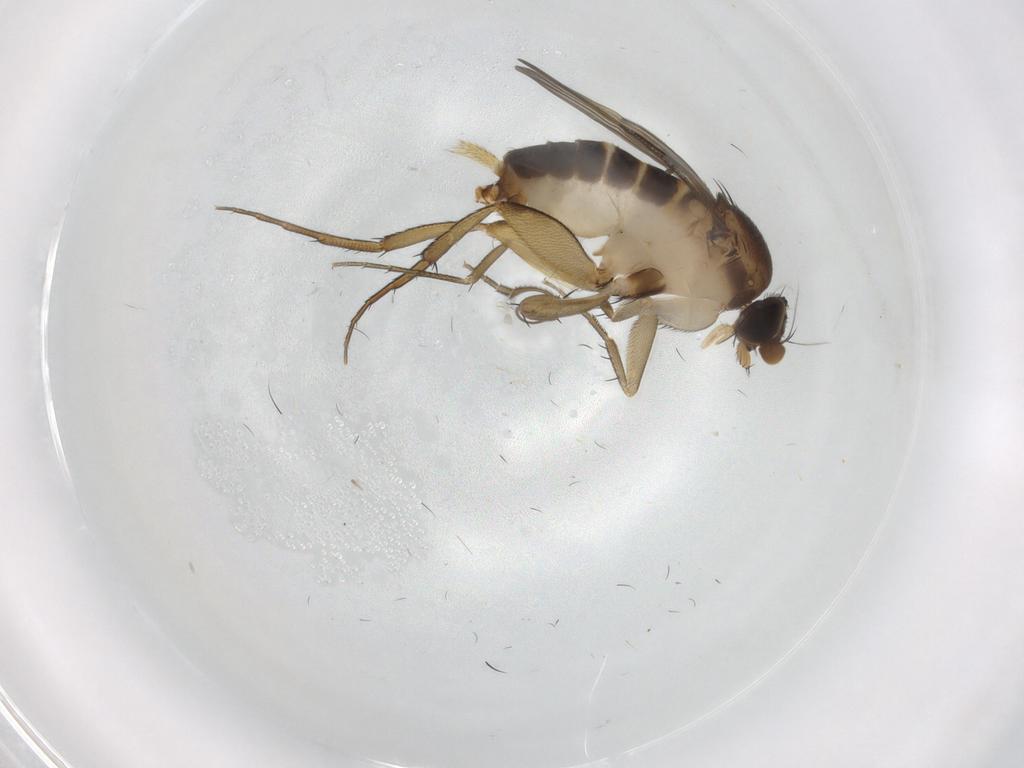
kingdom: Animalia
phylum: Arthropoda
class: Insecta
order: Diptera
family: Phoridae
